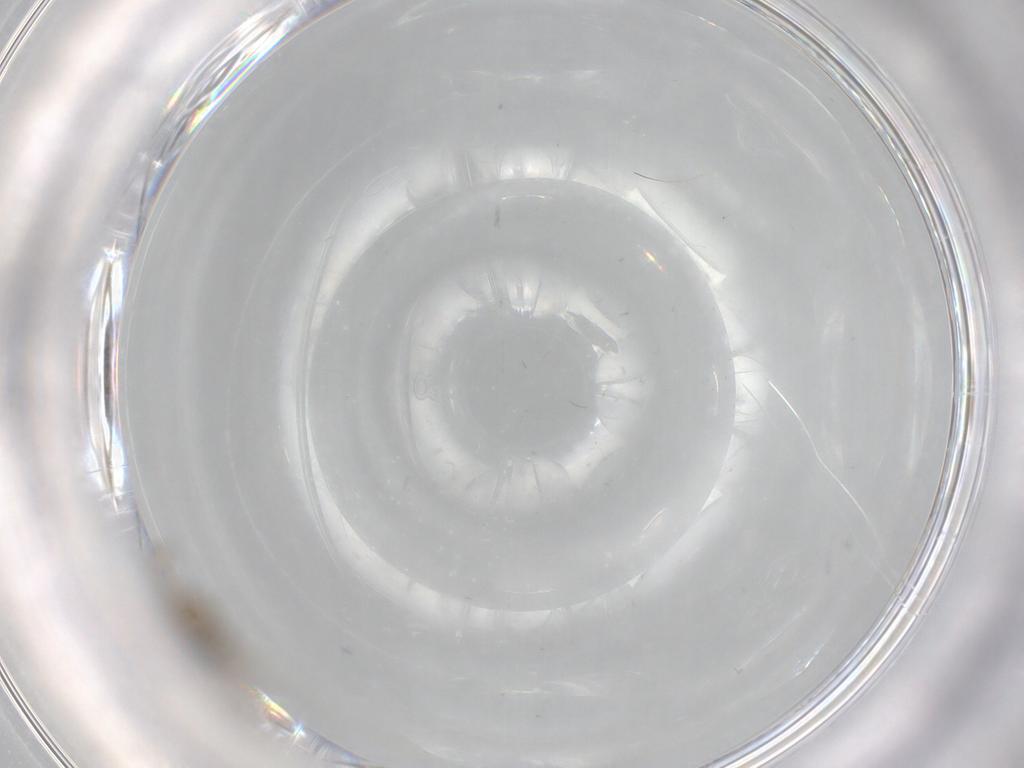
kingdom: Animalia
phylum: Arthropoda
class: Insecta
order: Diptera
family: Cecidomyiidae
